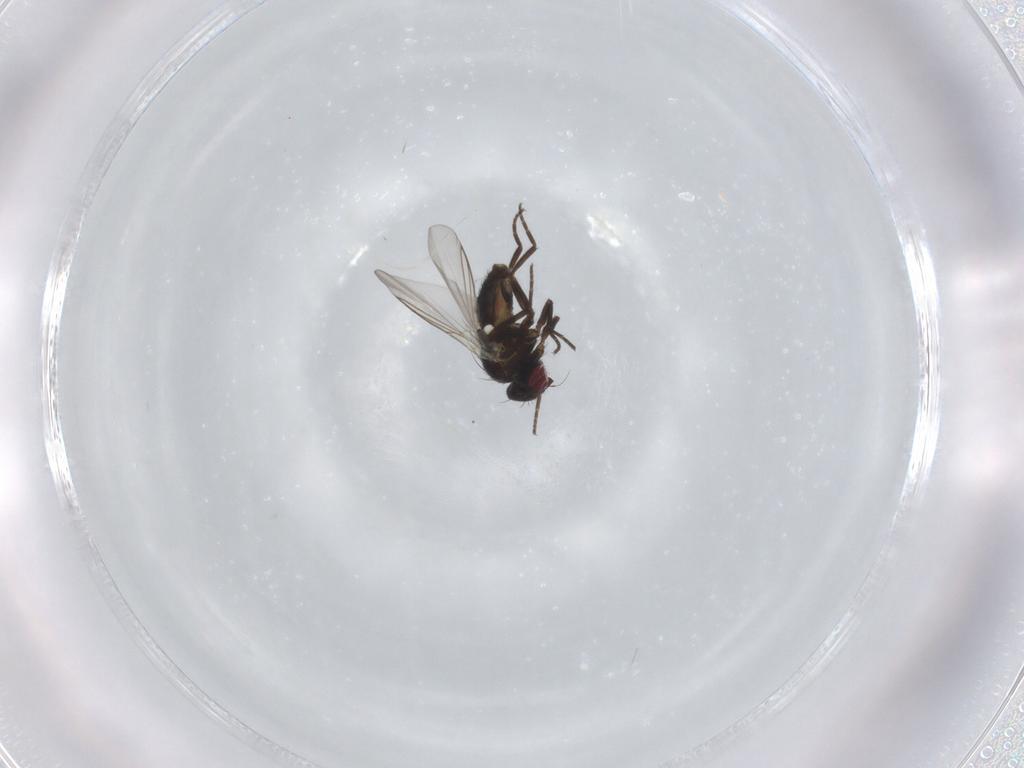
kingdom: Animalia
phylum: Arthropoda
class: Insecta
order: Diptera
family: Agromyzidae
